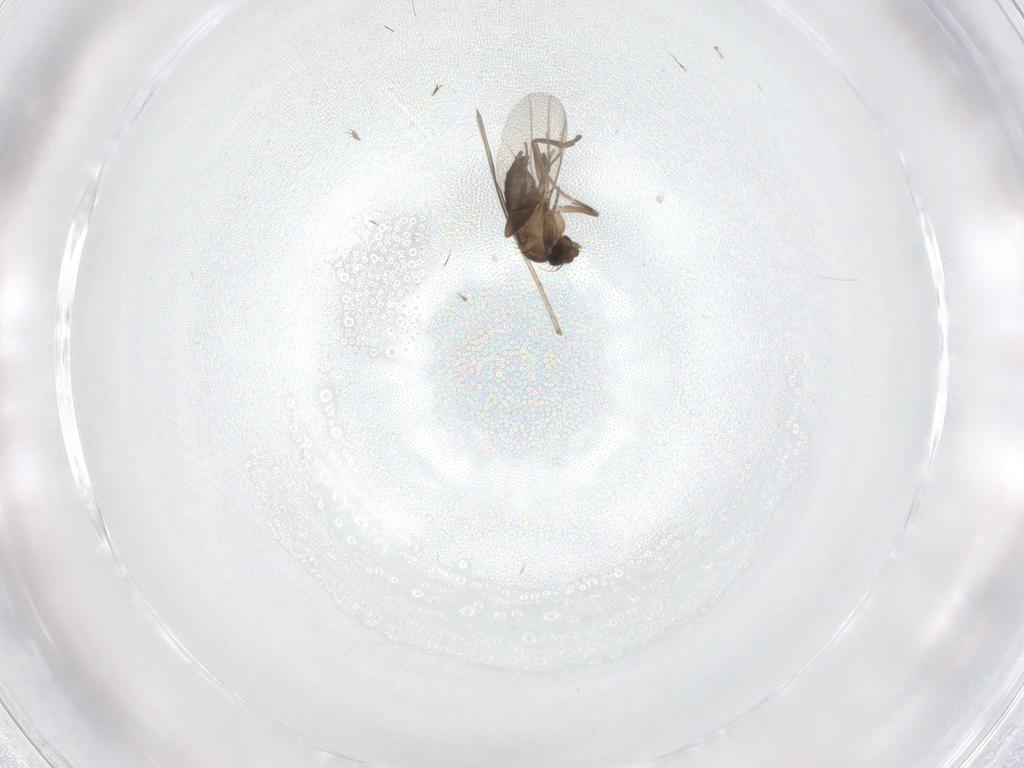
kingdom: Animalia
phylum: Arthropoda
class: Insecta
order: Diptera
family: Phoridae
